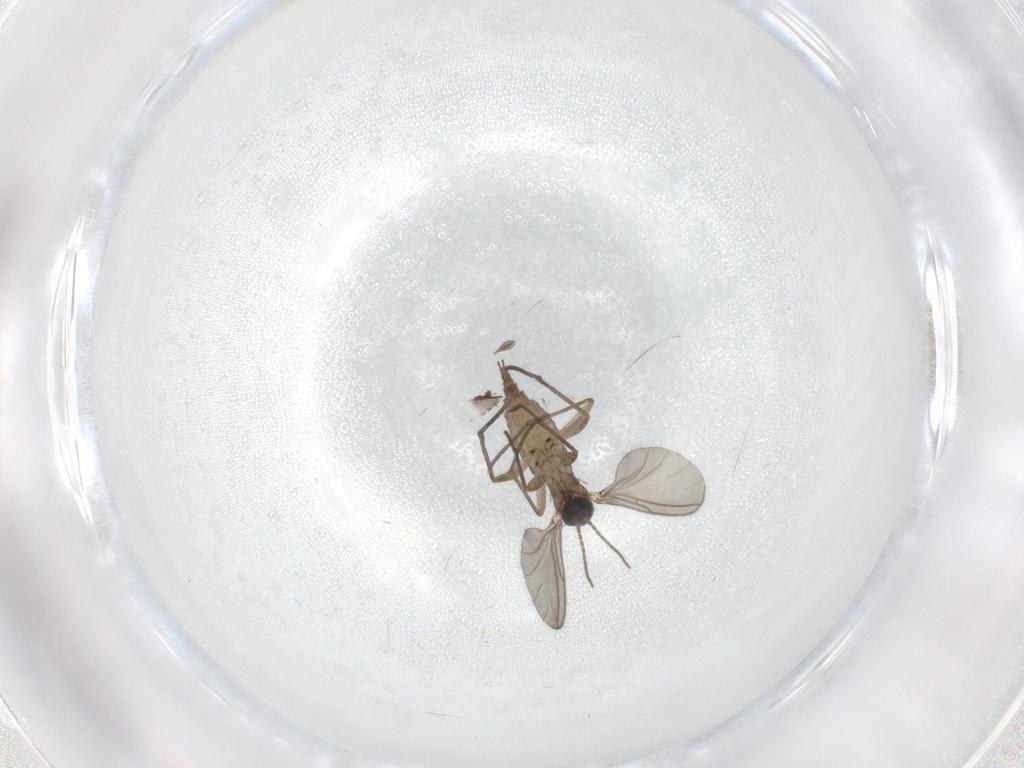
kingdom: Animalia
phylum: Arthropoda
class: Insecta
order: Diptera
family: Sciaridae
